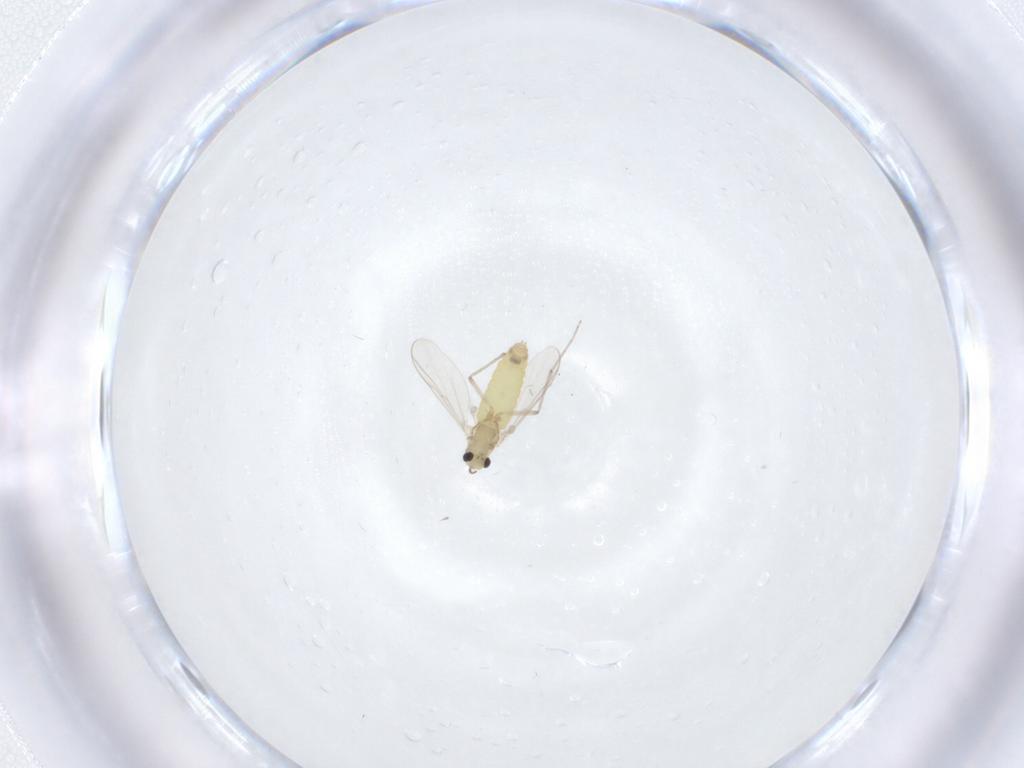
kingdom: Animalia
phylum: Arthropoda
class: Insecta
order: Diptera
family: Chironomidae
